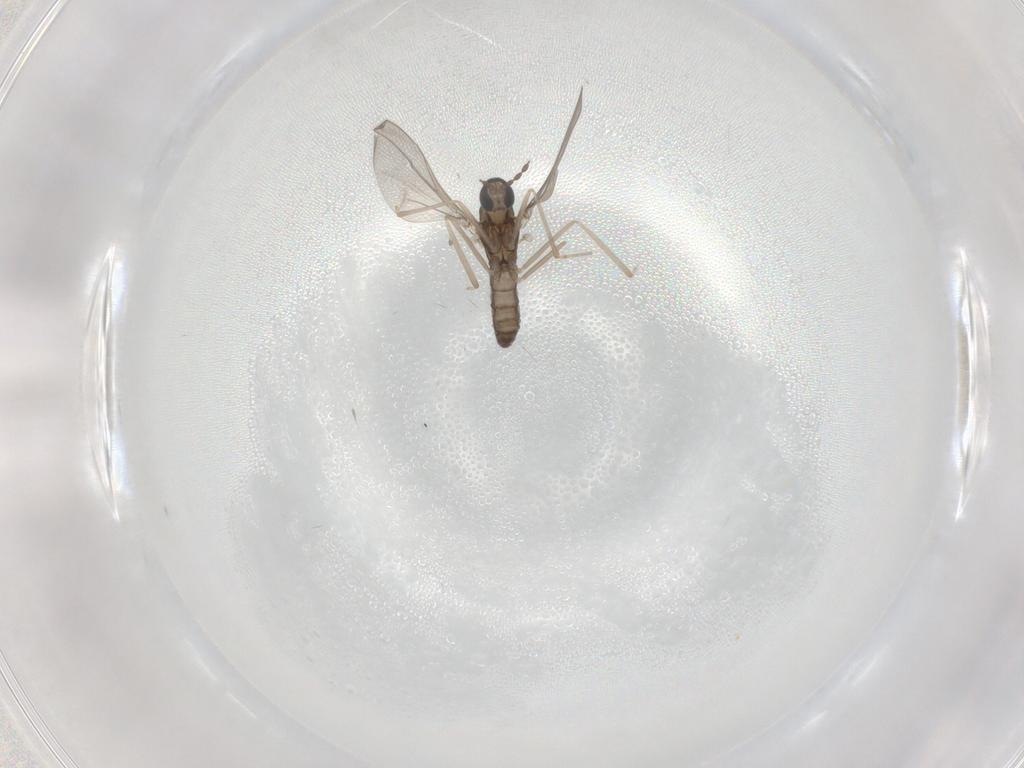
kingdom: Animalia
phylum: Arthropoda
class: Insecta
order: Diptera
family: Cecidomyiidae
